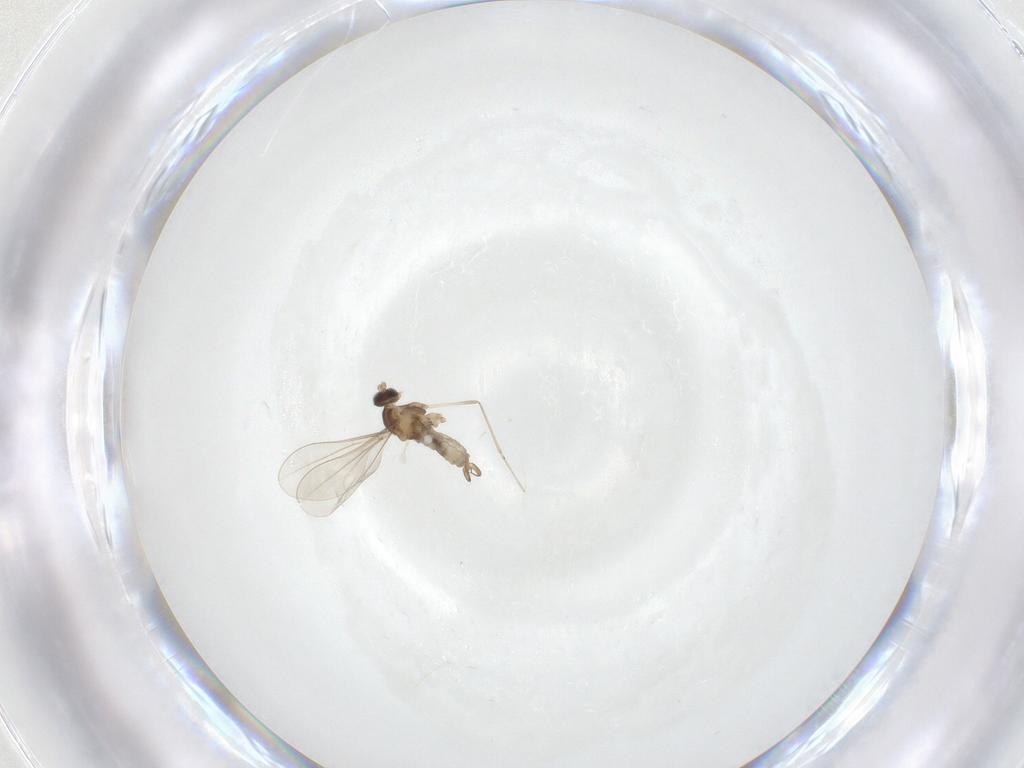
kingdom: Animalia
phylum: Arthropoda
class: Insecta
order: Diptera
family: Cecidomyiidae
